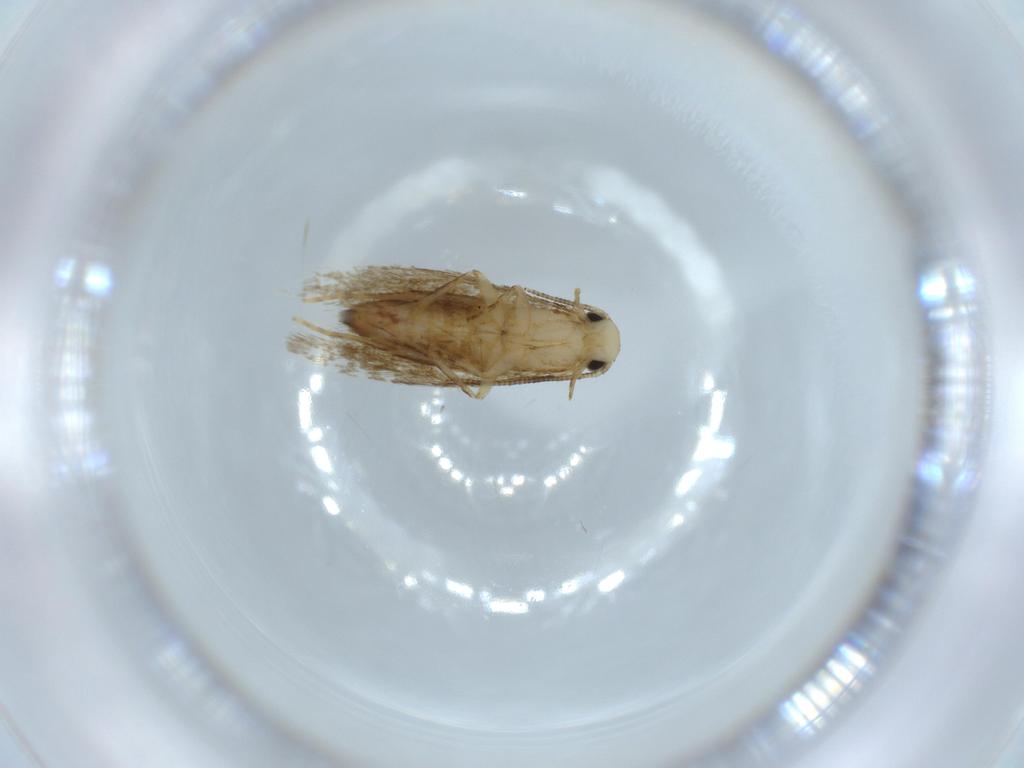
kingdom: Animalia
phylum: Arthropoda
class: Insecta
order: Lepidoptera
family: Tineidae
